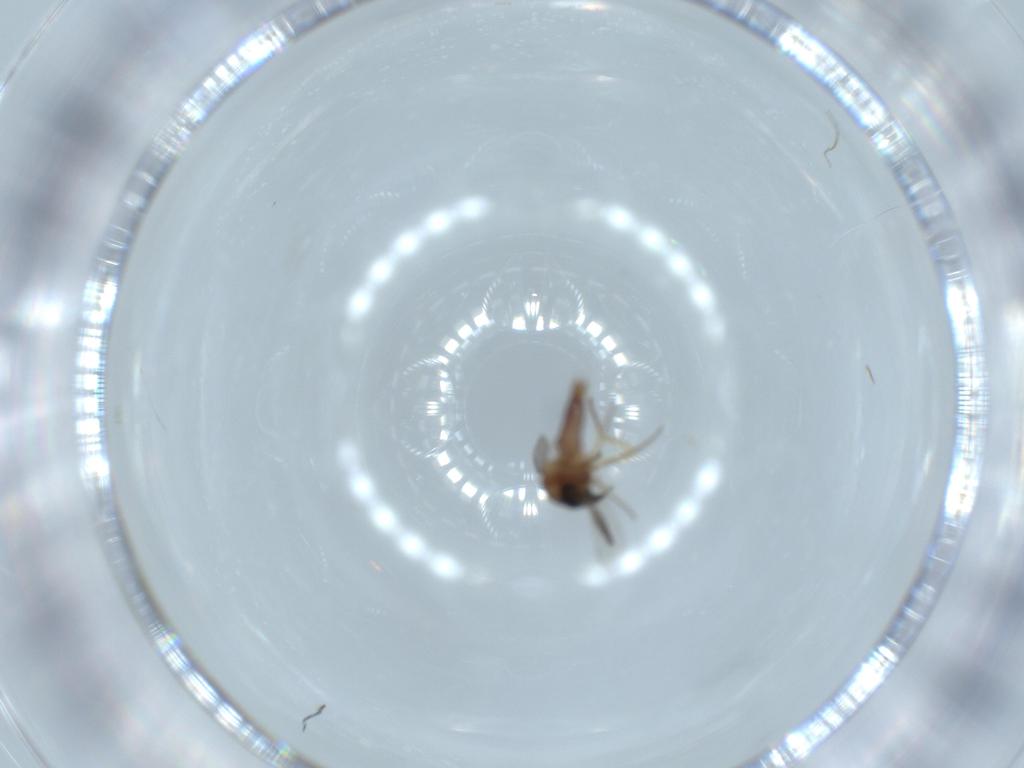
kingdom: Animalia
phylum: Arthropoda
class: Insecta
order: Diptera
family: Ceratopogonidae
